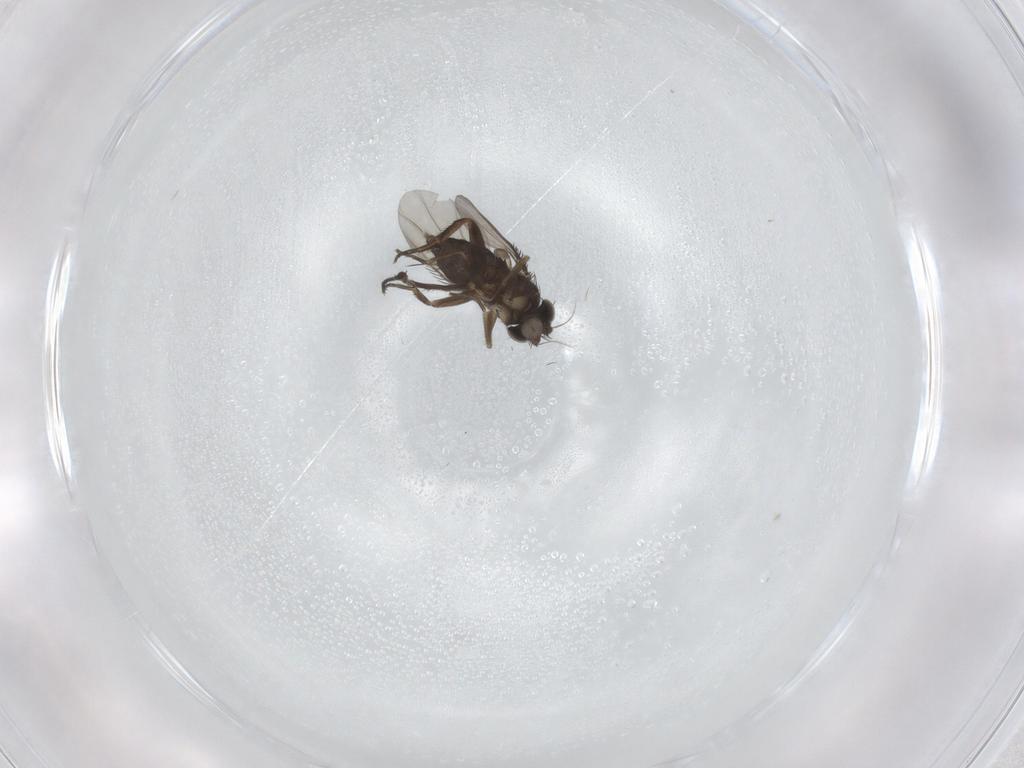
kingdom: Animalia
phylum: Arthropoda
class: Insecta
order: Diptera
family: Phoridae
